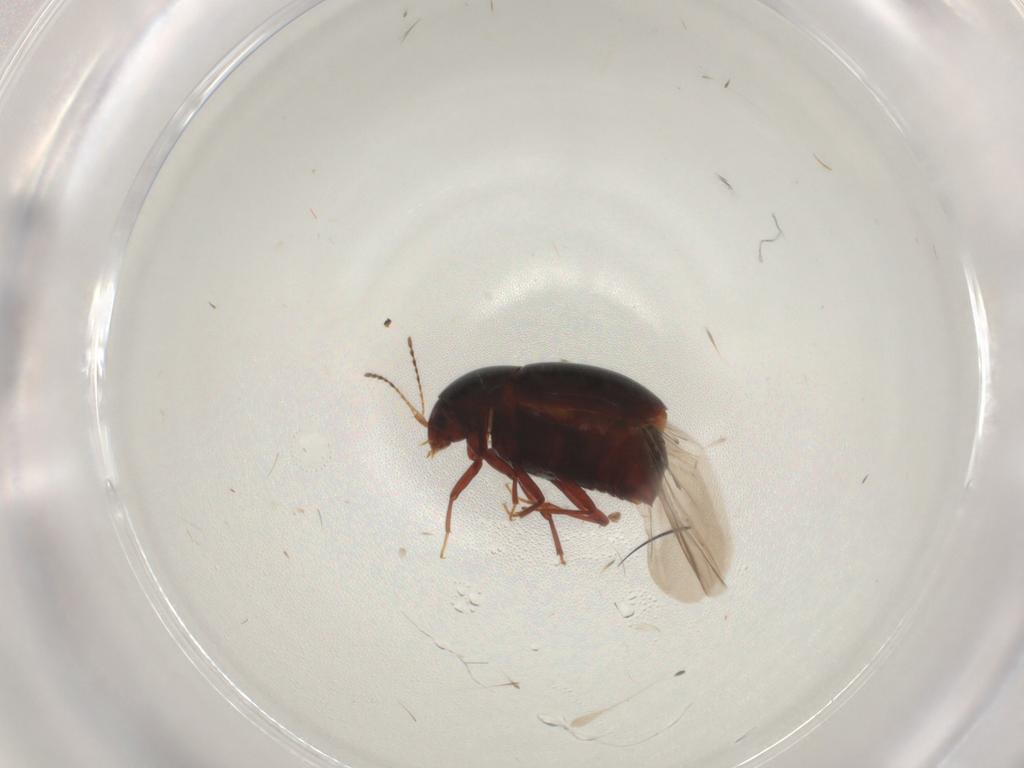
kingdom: Animalia
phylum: Arthropoda
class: Insecta
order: Coleoptera
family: Staphylinidae
